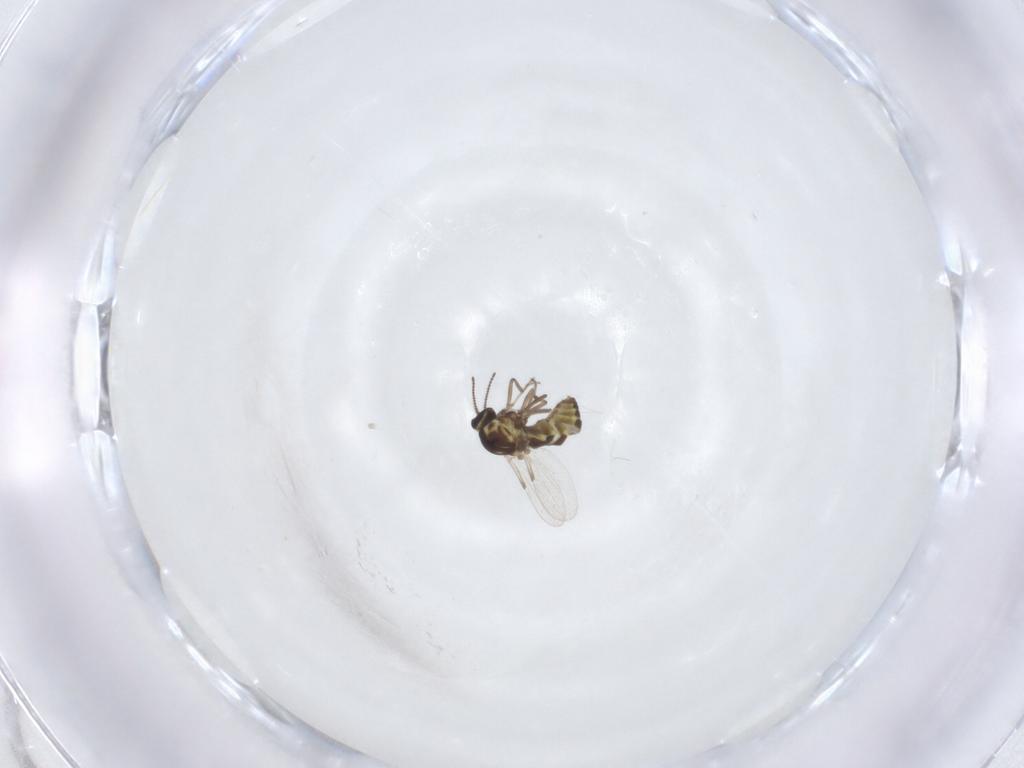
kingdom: Animalia
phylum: Arthropoda
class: Insecta
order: Diptera
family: Ceratopogonidae
